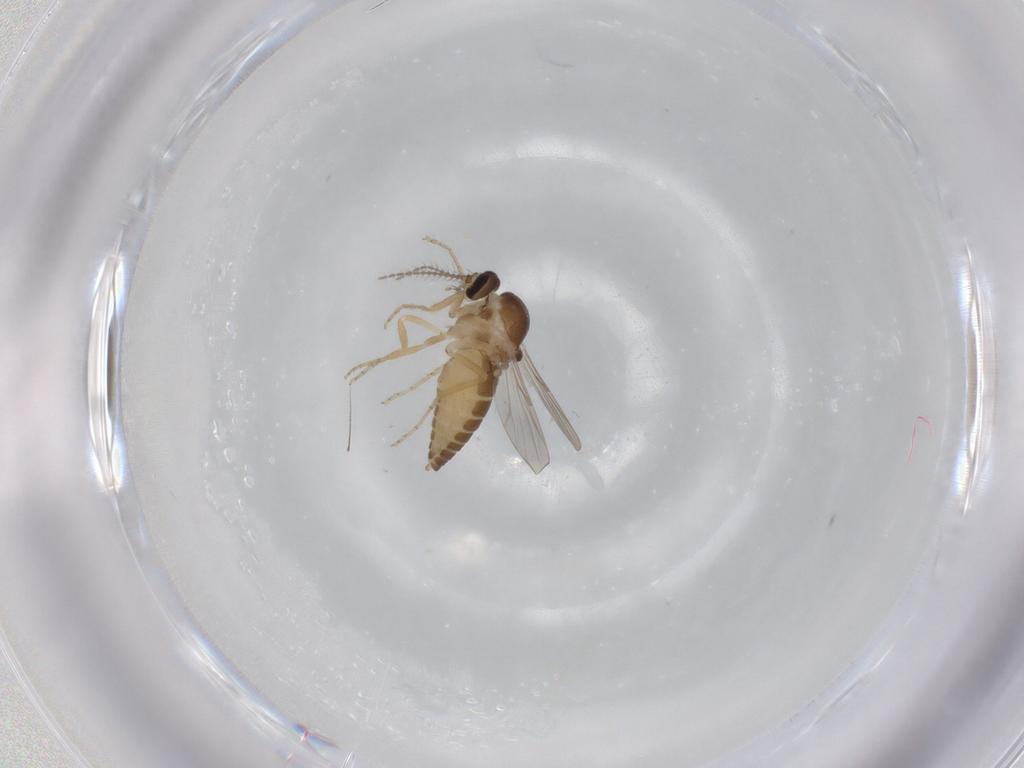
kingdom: Animalia
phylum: Arthropoda
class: Insecta
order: Diptera
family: Ceratopogonidae
